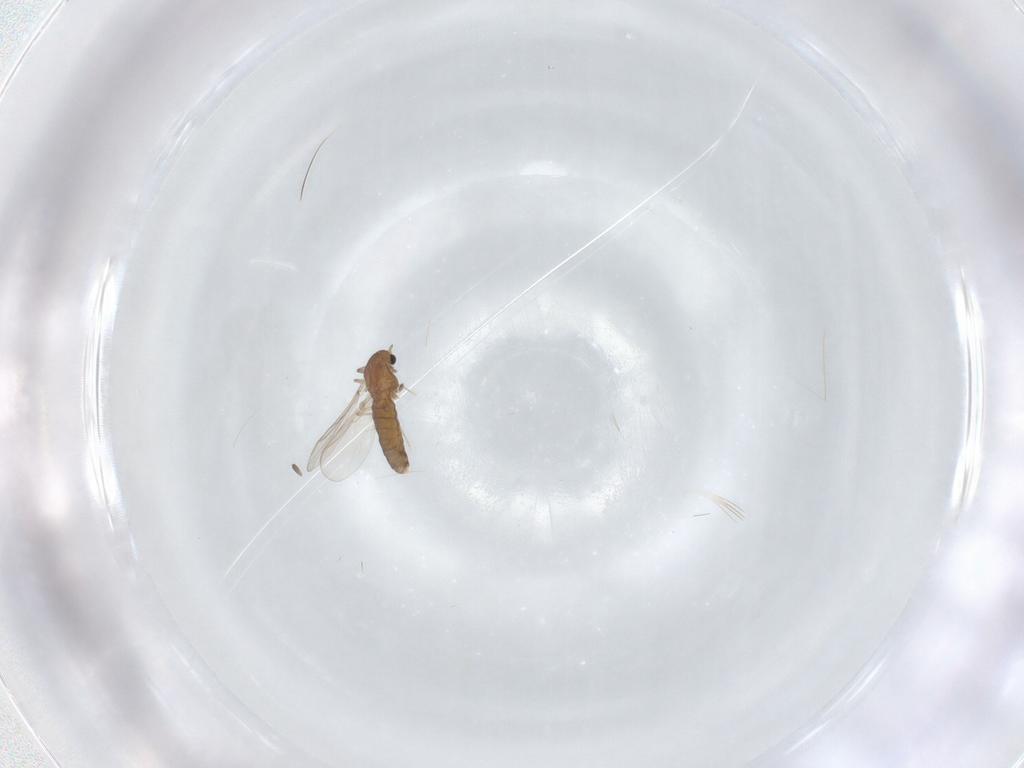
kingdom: Animalia
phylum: Arthropoda
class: Insecta
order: Diptera
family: Chironomidae
